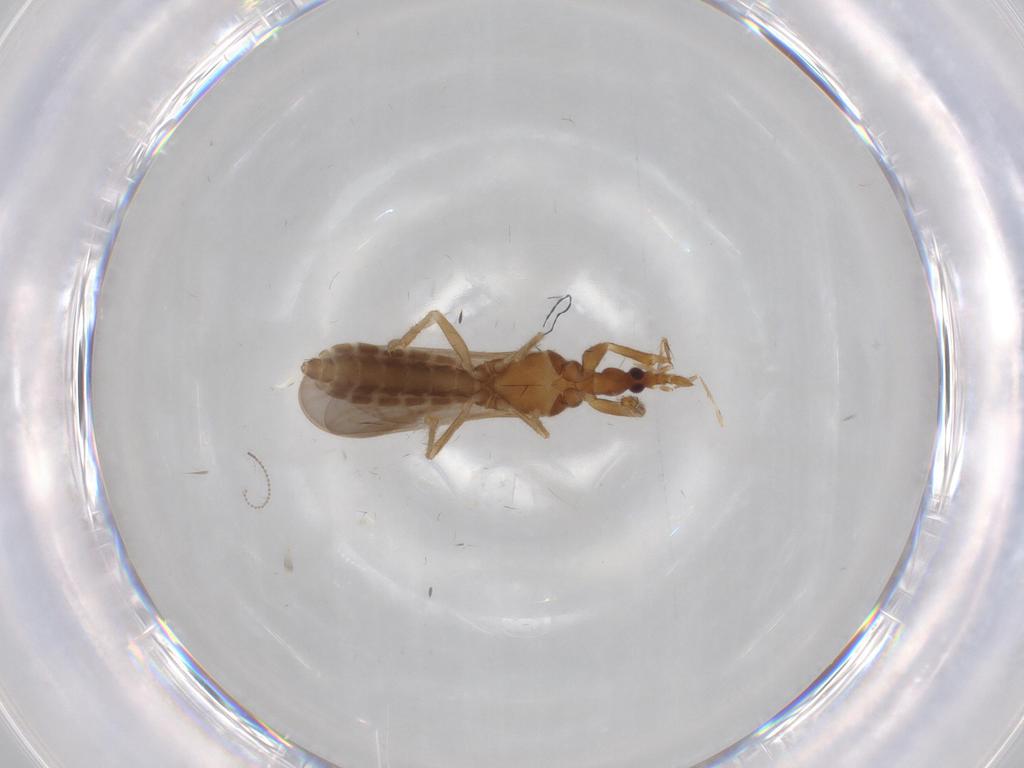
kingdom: Animalia
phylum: Arthropoda
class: Insecta
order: Hemiptera
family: Enicocephalidae
